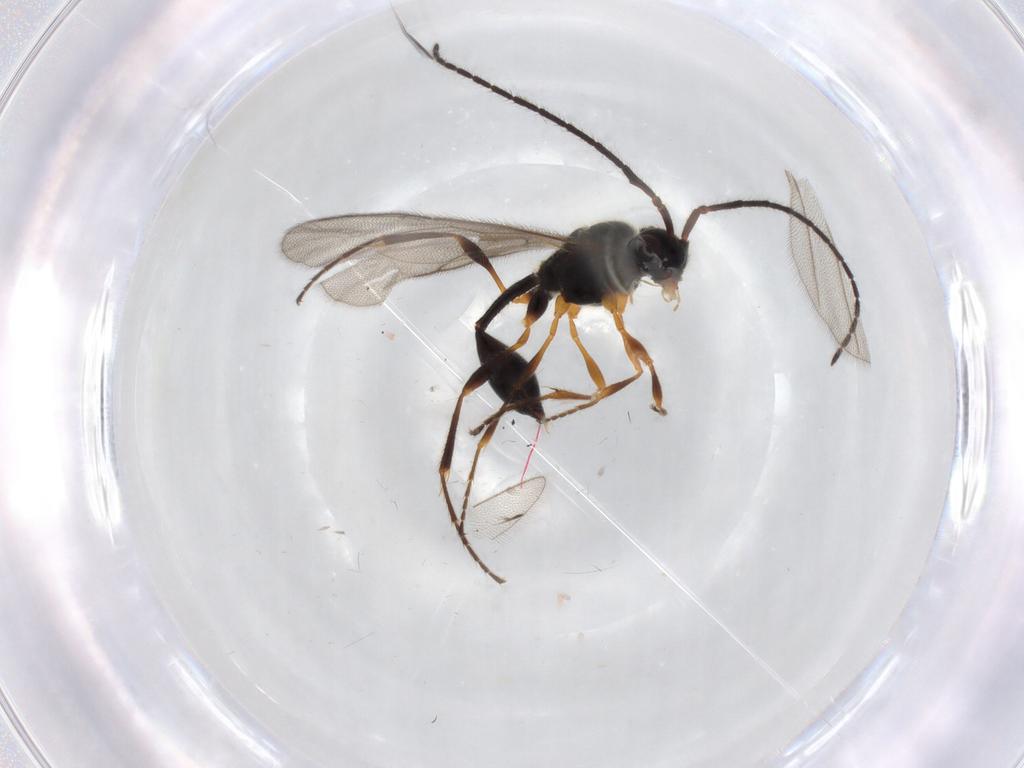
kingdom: Animalia
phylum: Arthropoda
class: Insecta
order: Hymenoptera
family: Diapriidae
